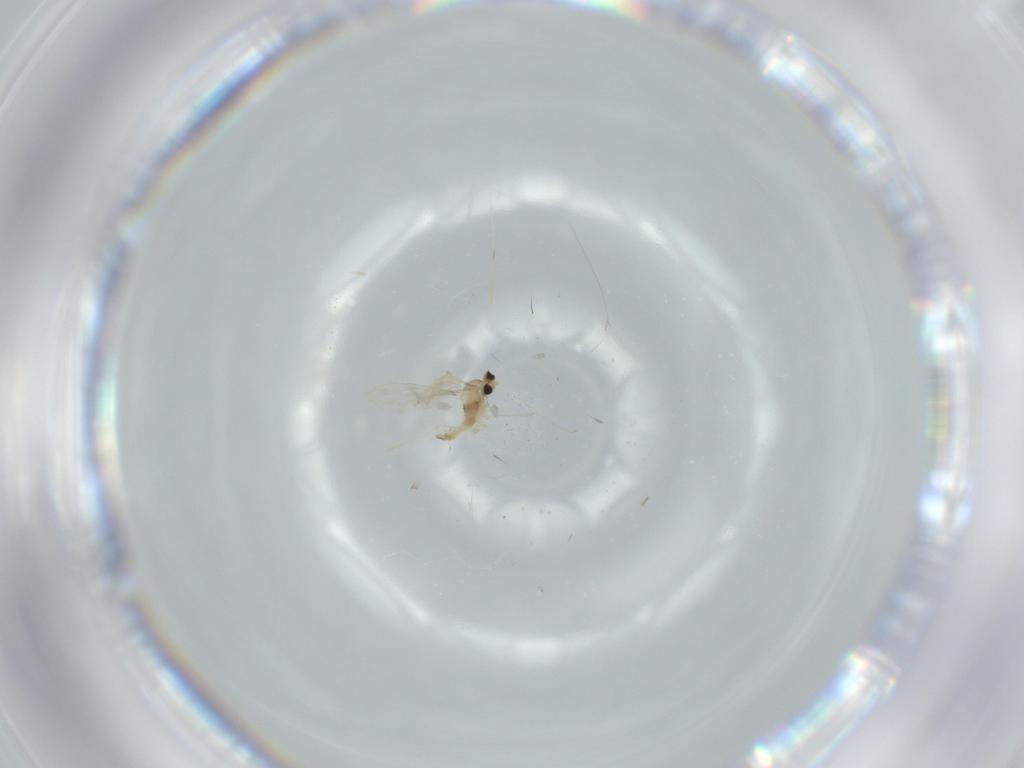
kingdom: Animalia
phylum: Arthropoda
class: Insecta
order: Diptera
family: Cecidomyiidae
